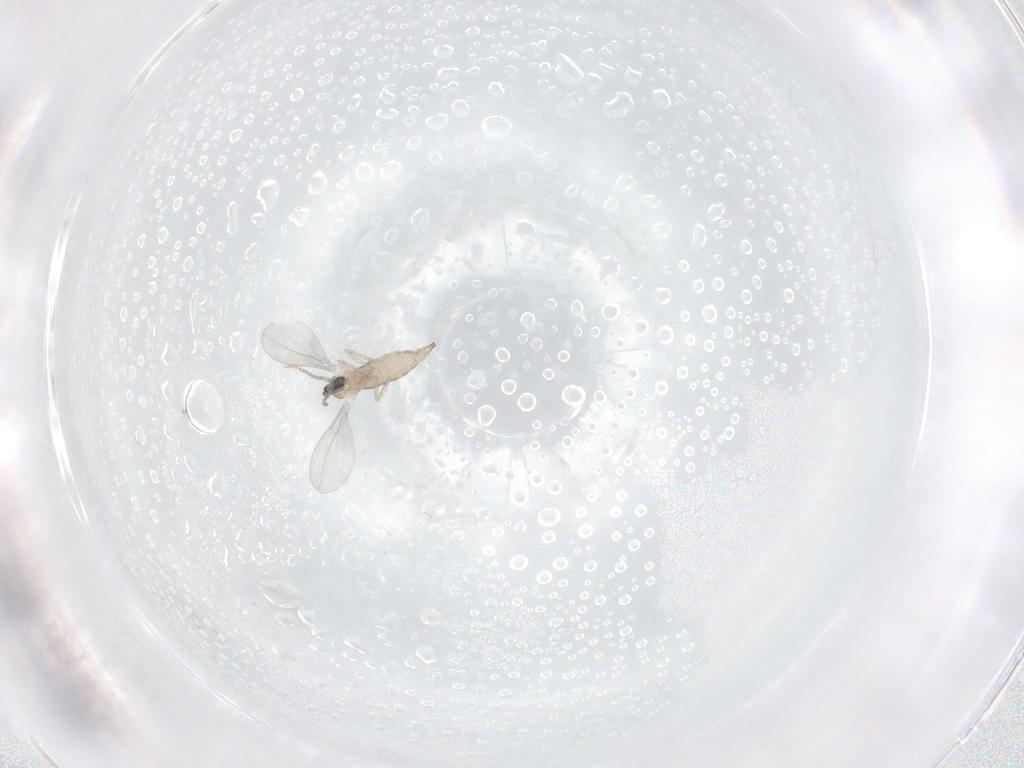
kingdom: Animalia
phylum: Arthropoda
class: Insecta
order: Diptera
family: Cecidomyiidae
